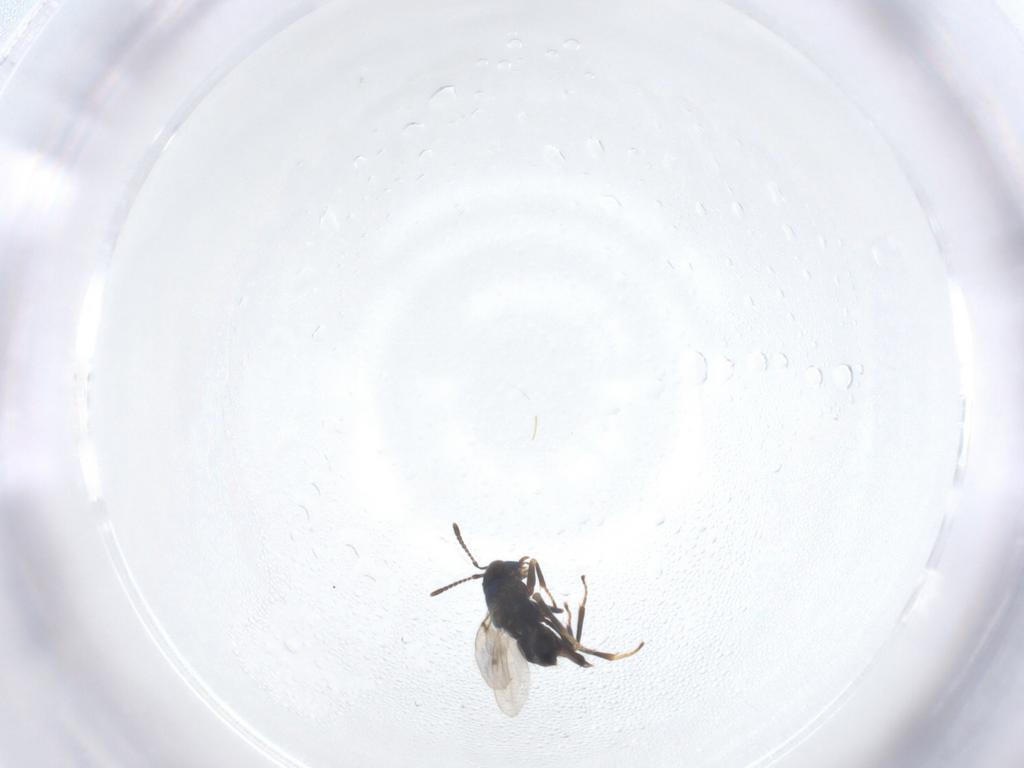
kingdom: Animalia
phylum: Arthropoda
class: Insecta
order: Hymenoptera
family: Encyrtidae
